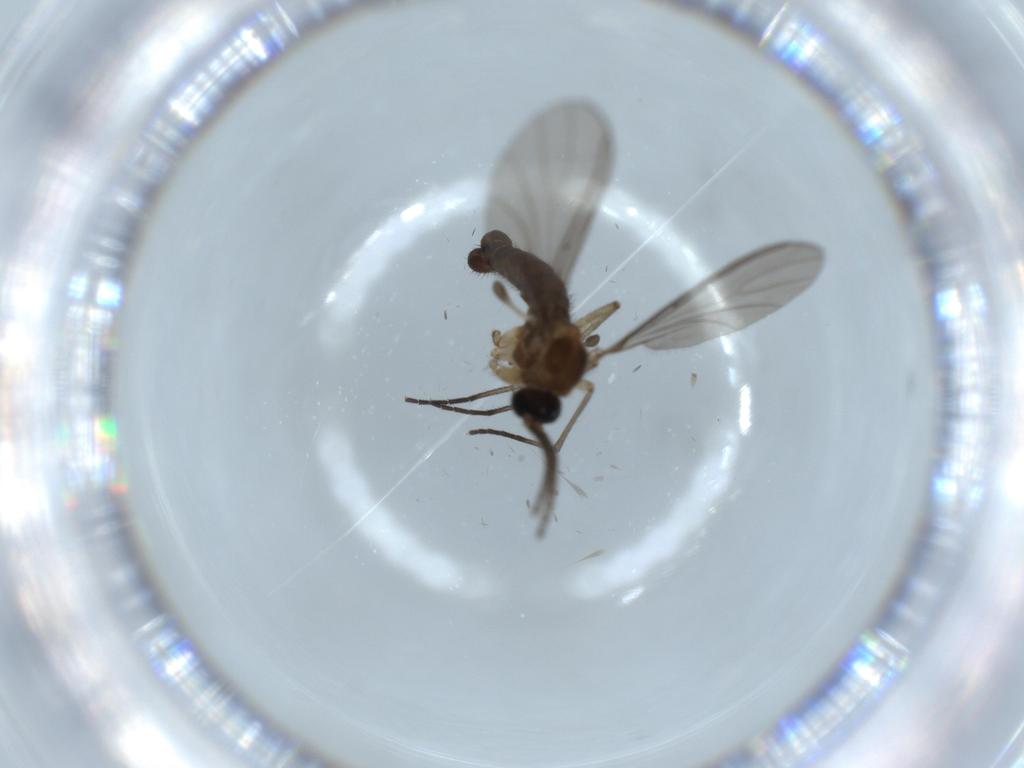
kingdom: Animalia
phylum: Arthropoda
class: Insecta
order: Diptera
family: Sciaridae
